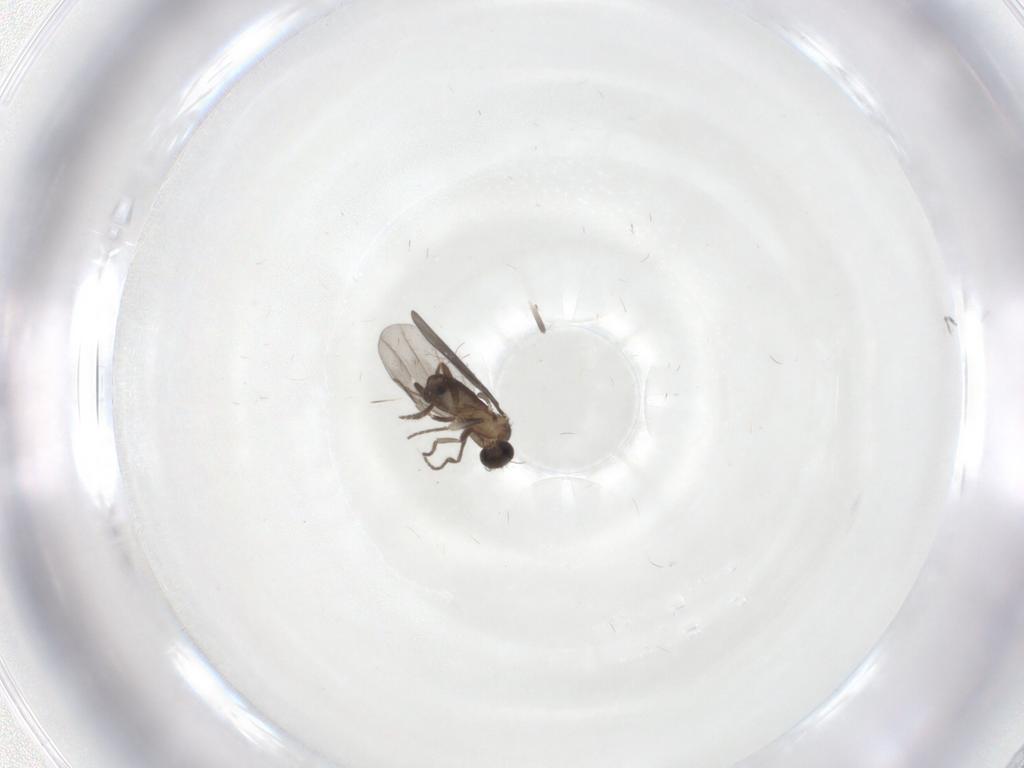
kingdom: Animalia
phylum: Arthropoda
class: Insecta
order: Diptera
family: Phoridae
